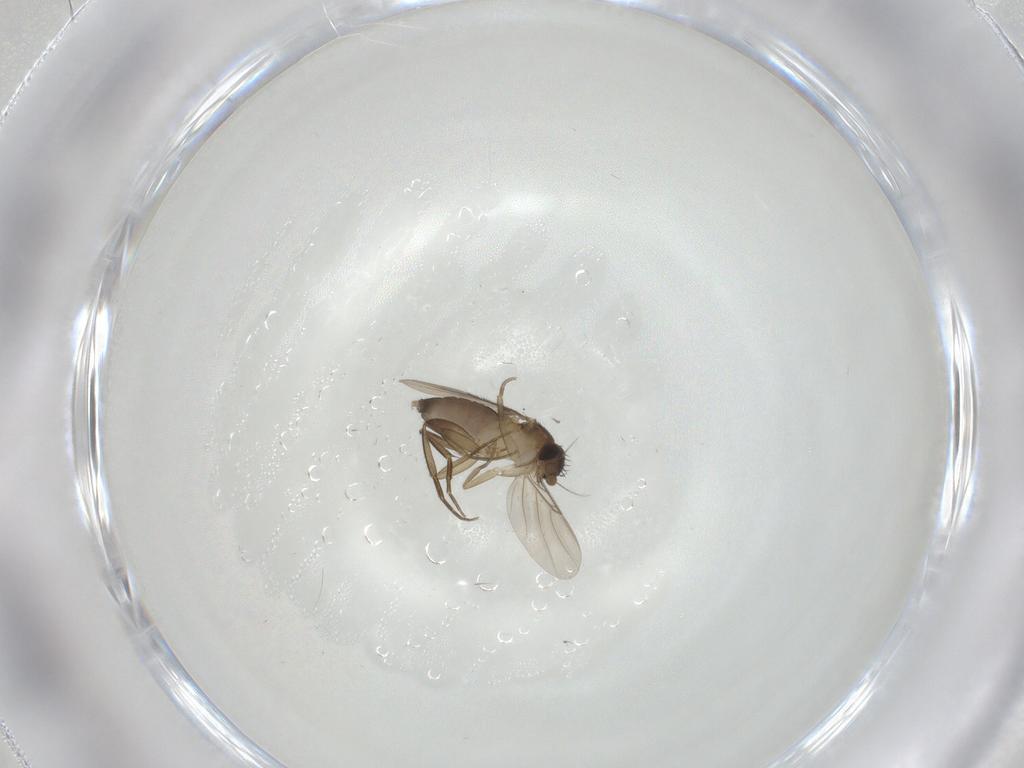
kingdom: Animalia
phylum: Arthropoda
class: Insecta
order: Diptera
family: Phoridae
